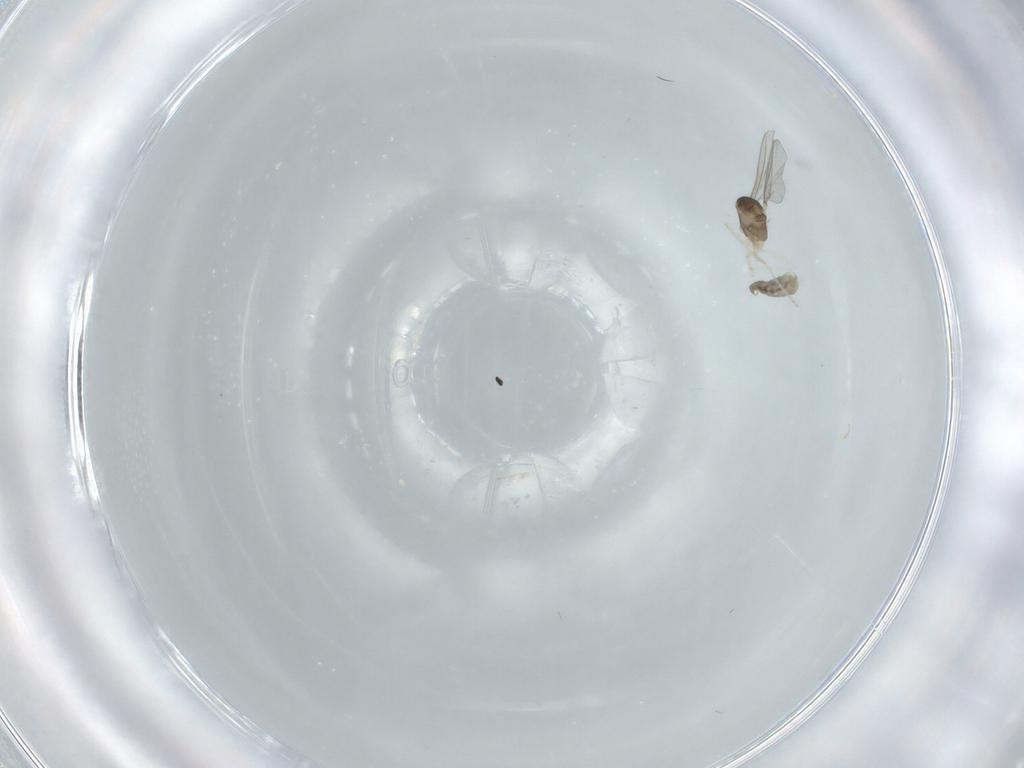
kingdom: Animalia
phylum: Arthropoda
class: Insecta
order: Diptera
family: Cecidomyiidae
